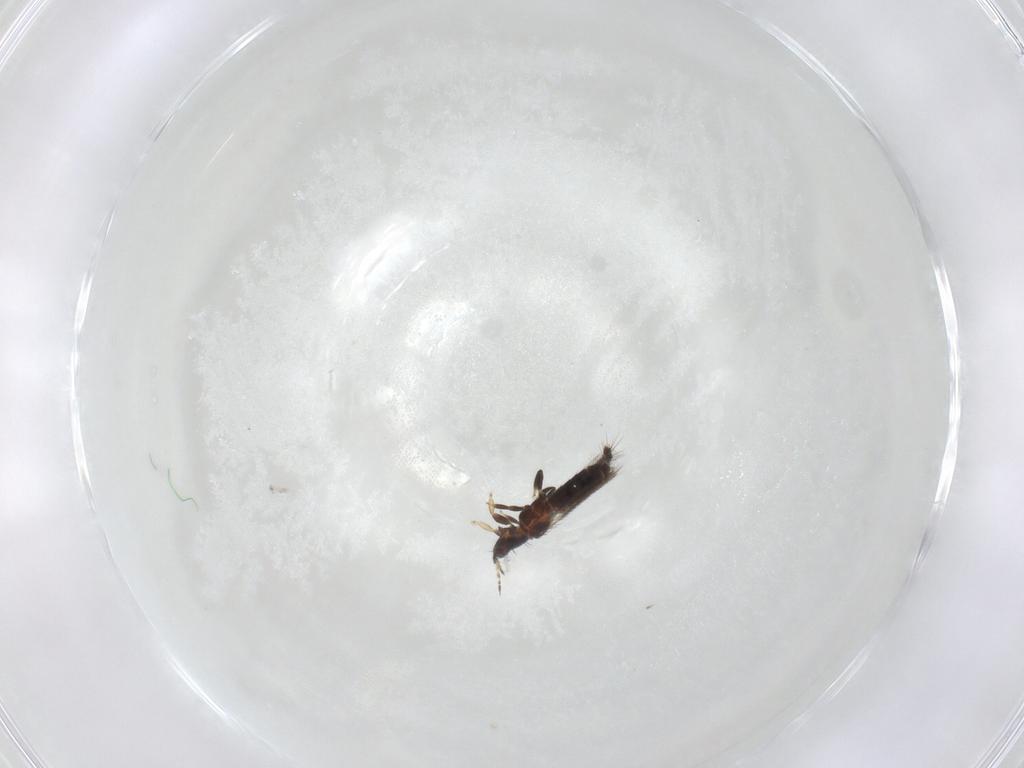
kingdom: Animalia
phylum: Arthropoda
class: Insecta
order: Thysanoptera
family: Thripidae
